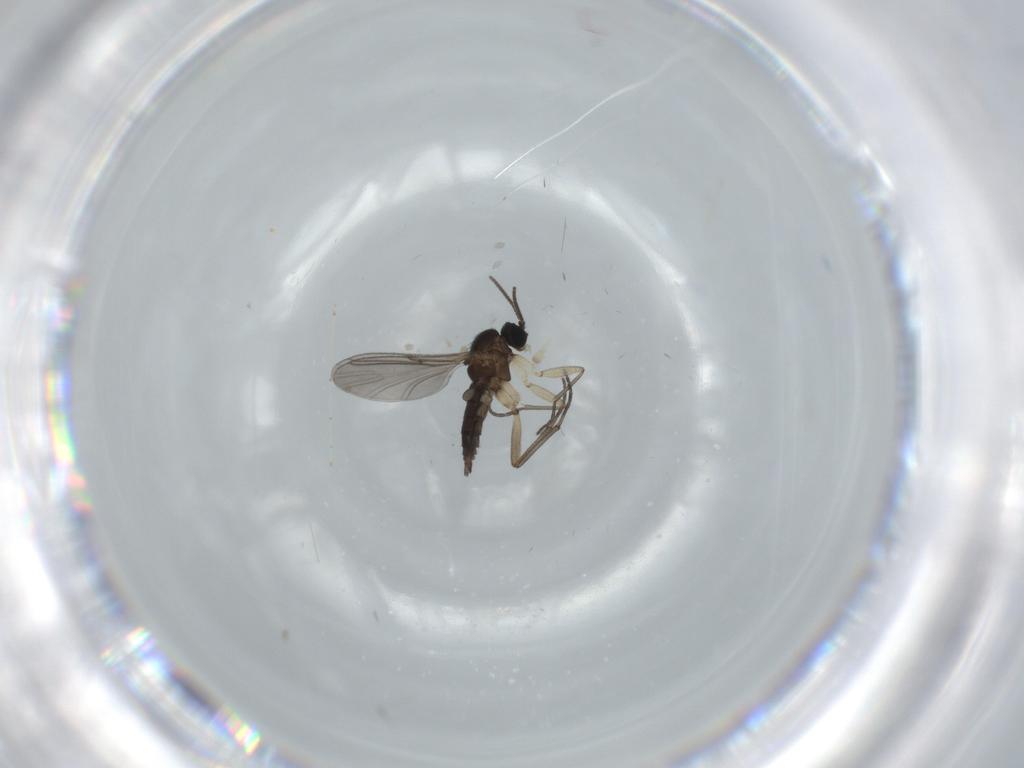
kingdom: Animalia
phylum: Arthropoda
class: Insecta
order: Diptera
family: Sciaridae
